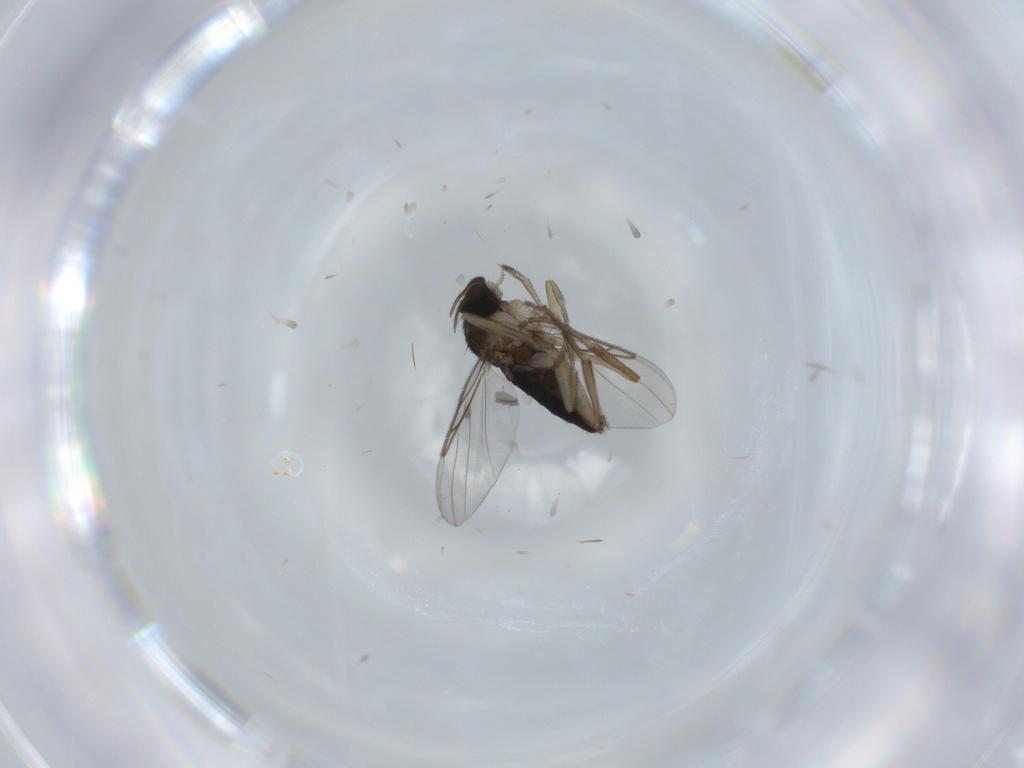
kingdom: Animalia
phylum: Arthropoda
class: Insecta
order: Diptera
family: Sciaridae
